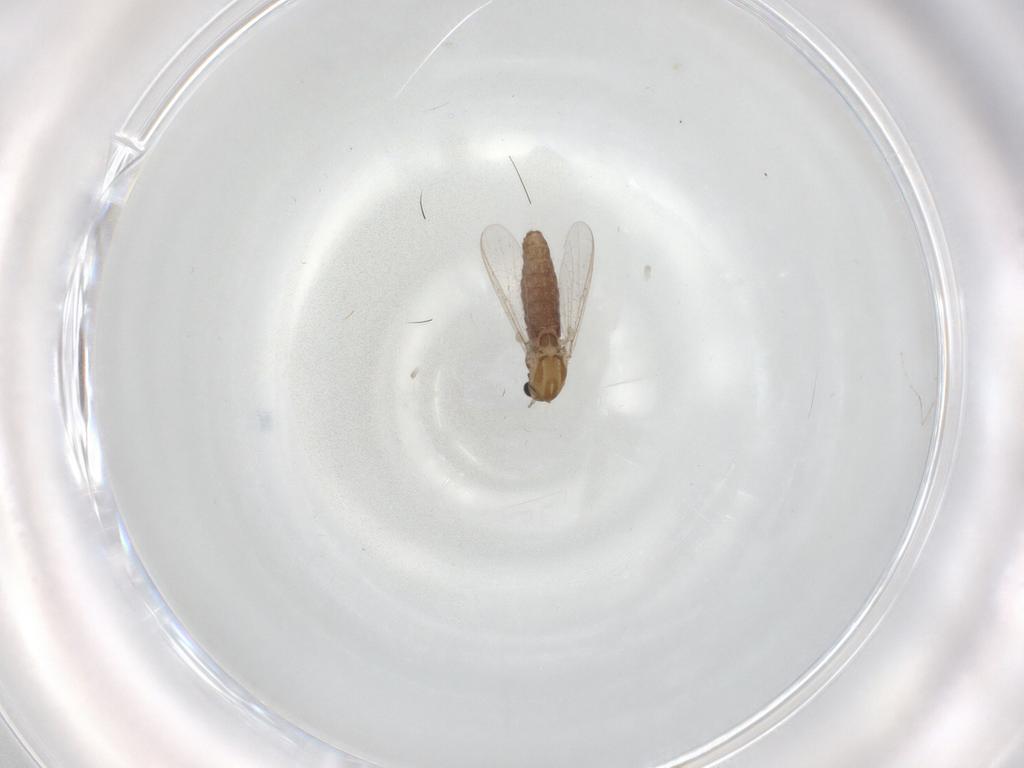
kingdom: Animalia
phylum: Arthropoda
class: Insecta
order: Diptera
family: Chironomidae
